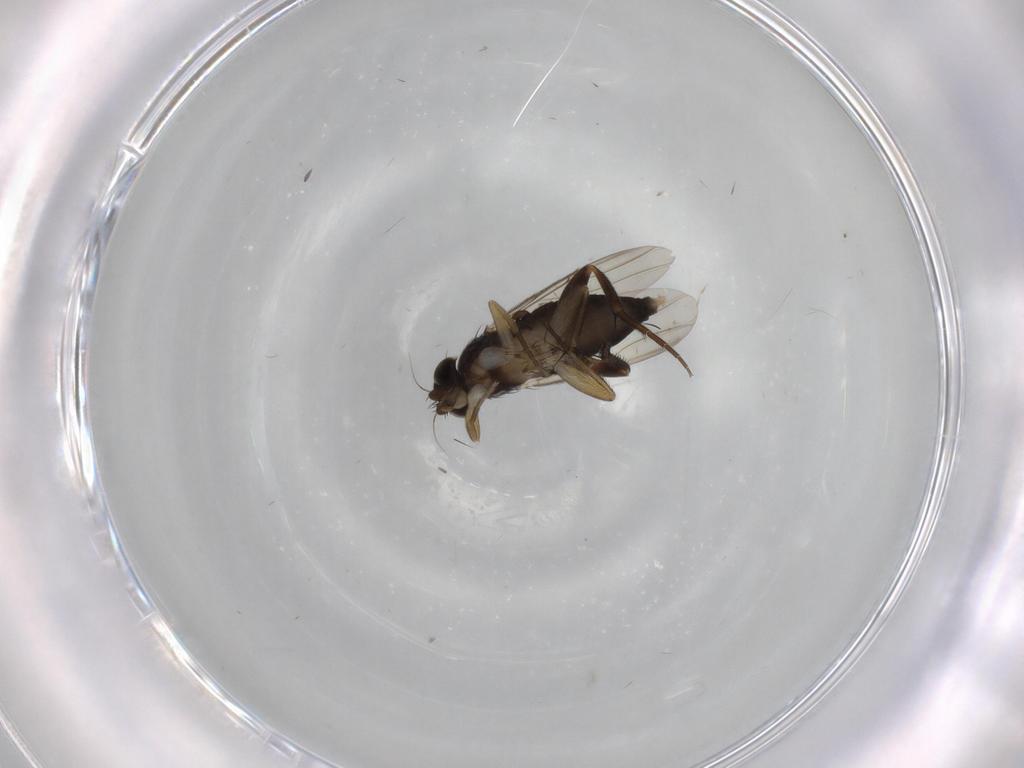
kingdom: Animalia
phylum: Arthropoda
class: Insecta
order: Diptera
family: Phoridae
